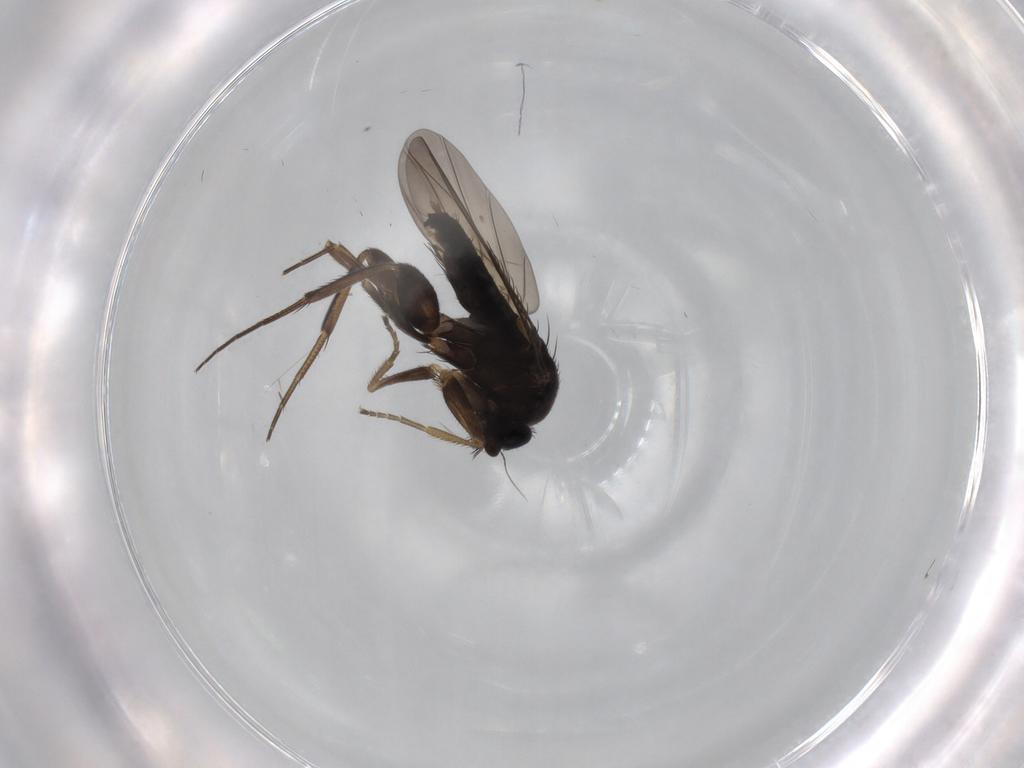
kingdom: Animalia
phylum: Arthropoda
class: Insecta
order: Diptera
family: Phoridae
